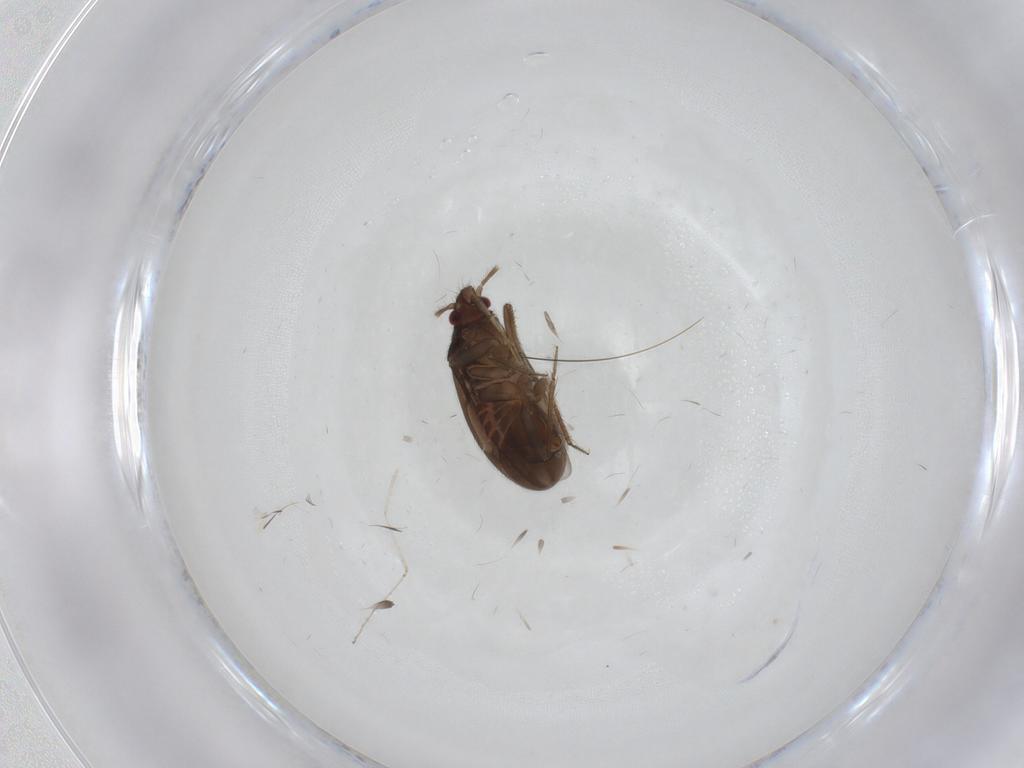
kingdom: Animalia
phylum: Arthropoda
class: Insecta
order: Hemiptera
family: Ceratocombidae
